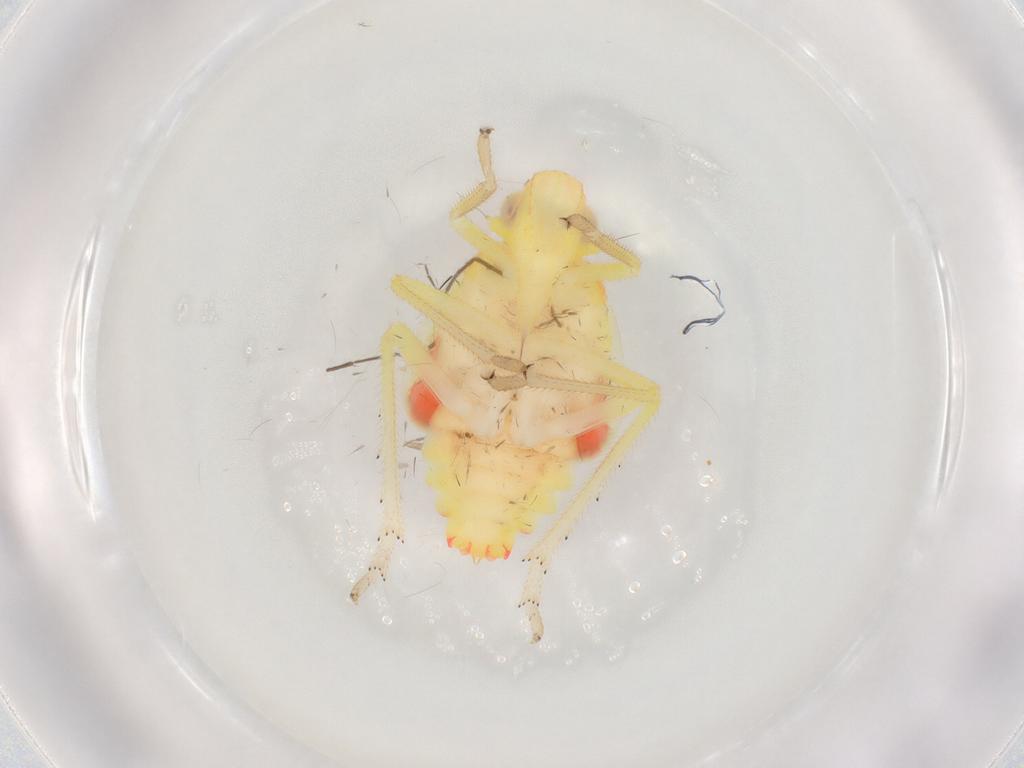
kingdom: Animalia
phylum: Arthropoda
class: Insecta
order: Hemiptera
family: Tropiduchidae
